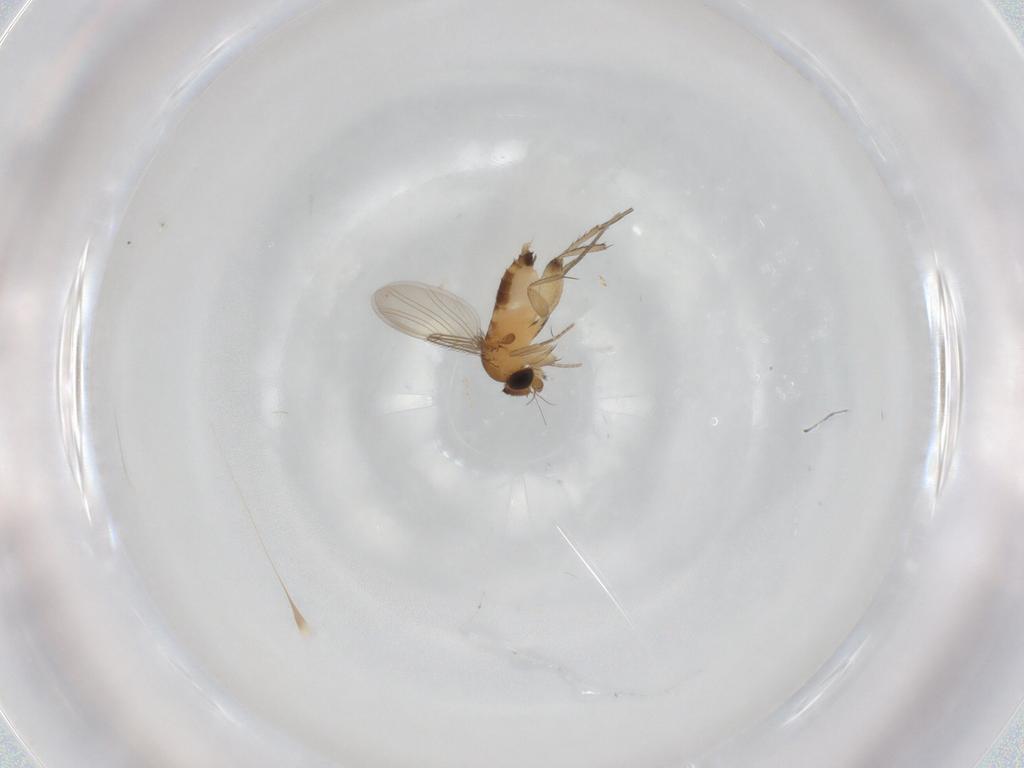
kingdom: Animalia
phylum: Arthropoda
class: Insecta
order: Diptera
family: Phoridae
